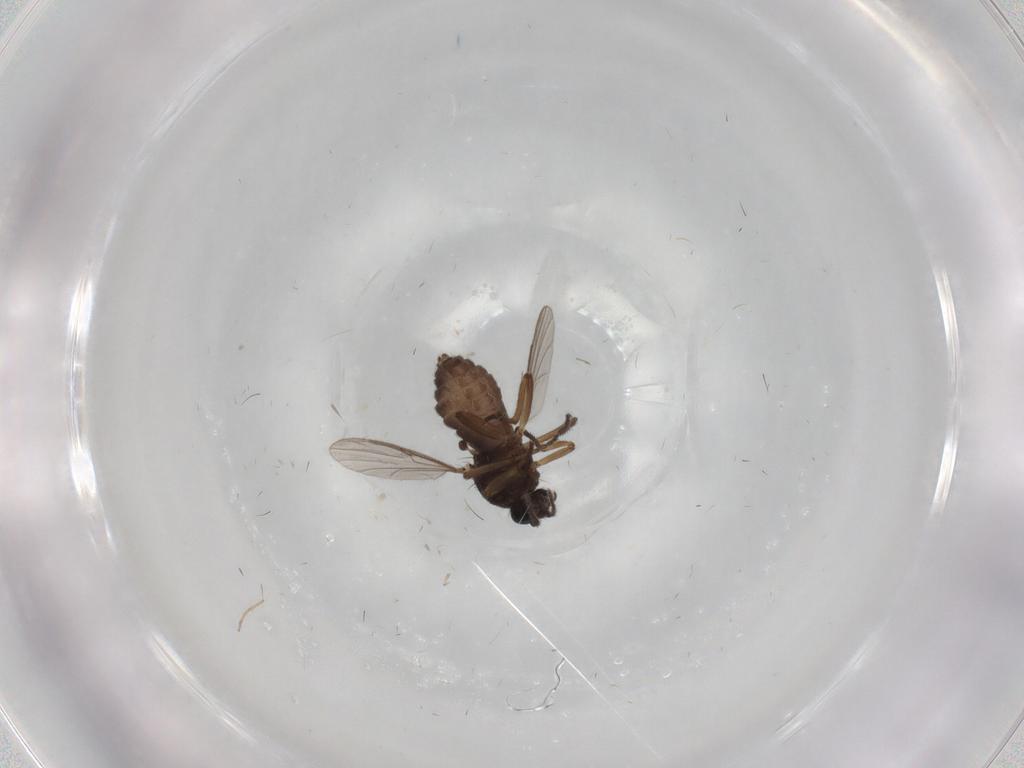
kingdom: Animalia
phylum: Arthropoda
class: Insecta
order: Diptera
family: Ceratopogonidae
